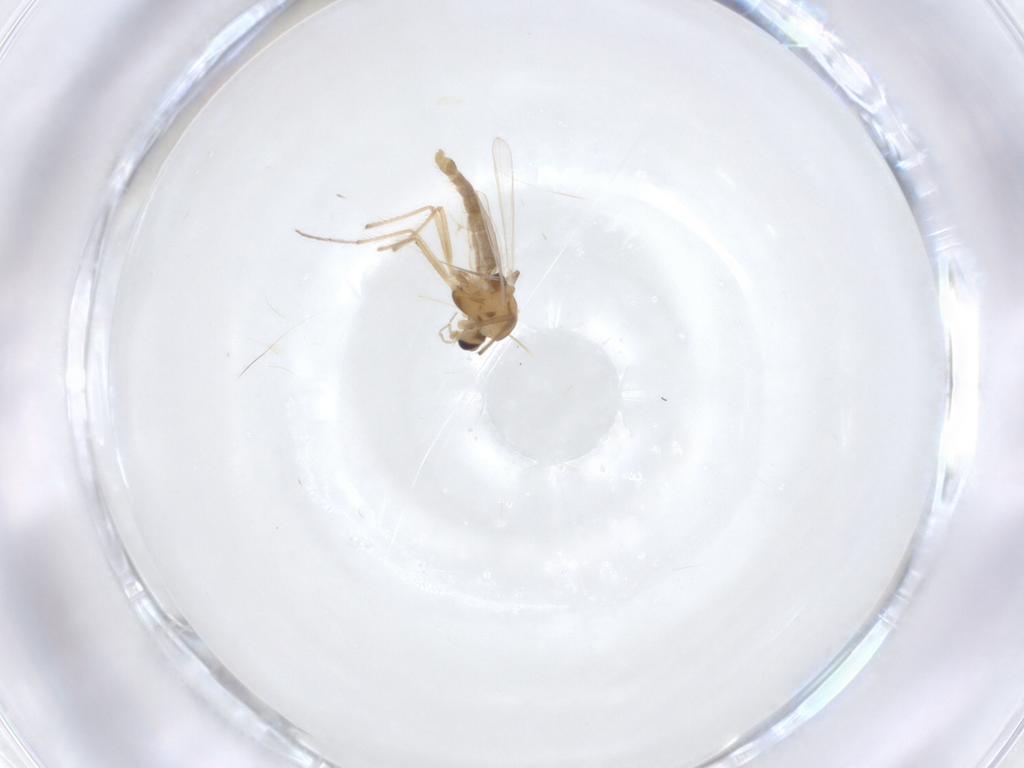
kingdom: Animalia
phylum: Arthropoda
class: Insecta
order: Diptera
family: Chironomidae
